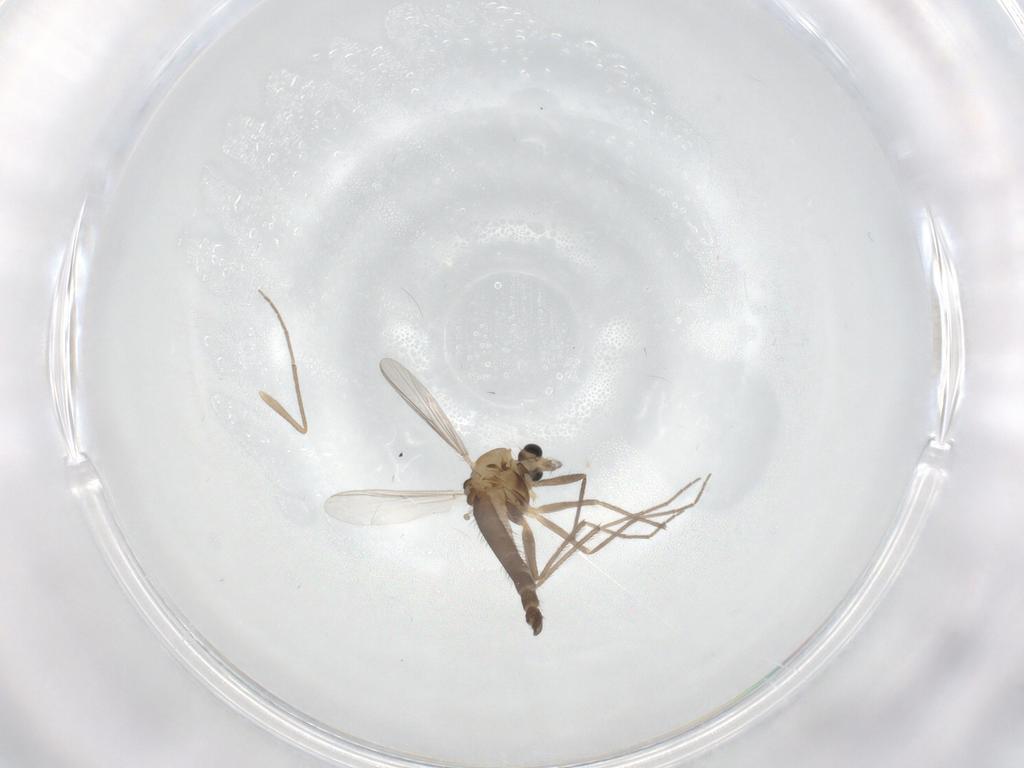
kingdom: Animalia
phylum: Arthropoda
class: Insecta
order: Diptera
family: Chironomidae
